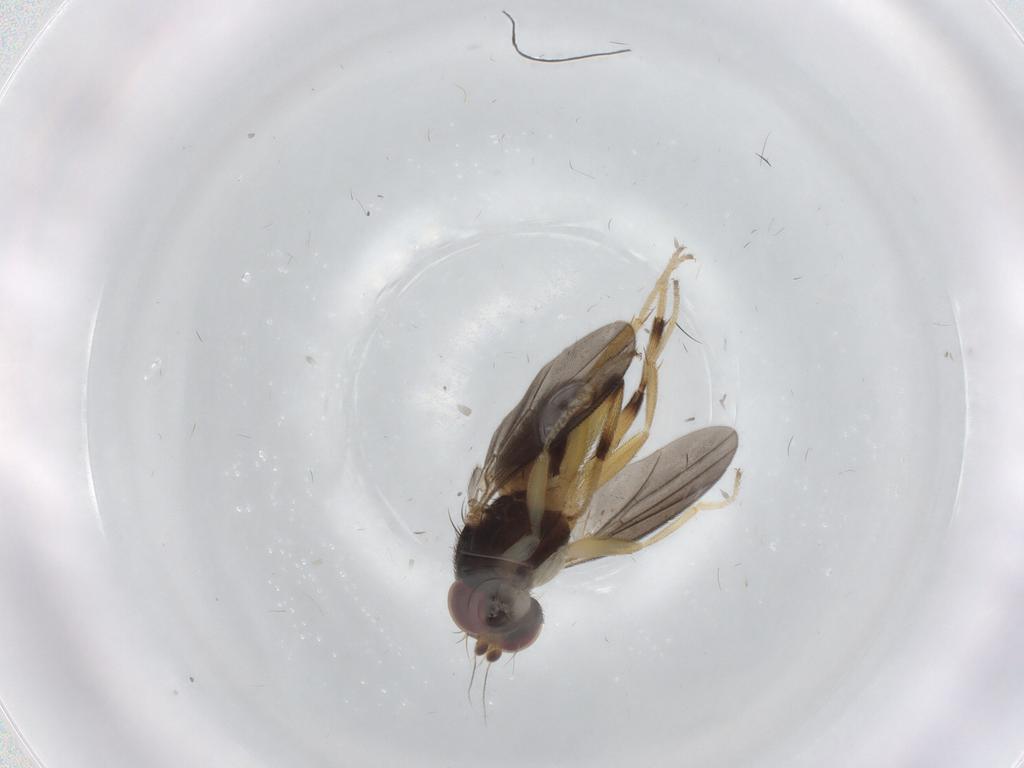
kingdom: Animalia
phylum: Arthropoda
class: Insecta
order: Diptera
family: Clusiidae
